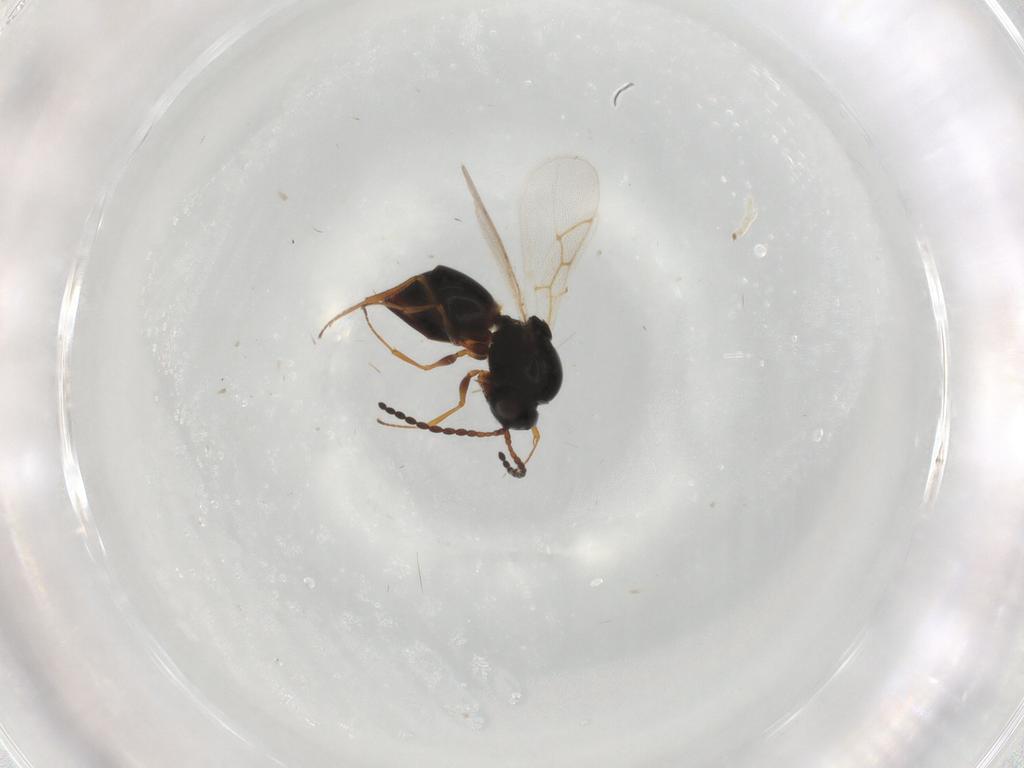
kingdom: Animalia
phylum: Arthropoda
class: Insecta
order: Hymenoptera
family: Figitidae
